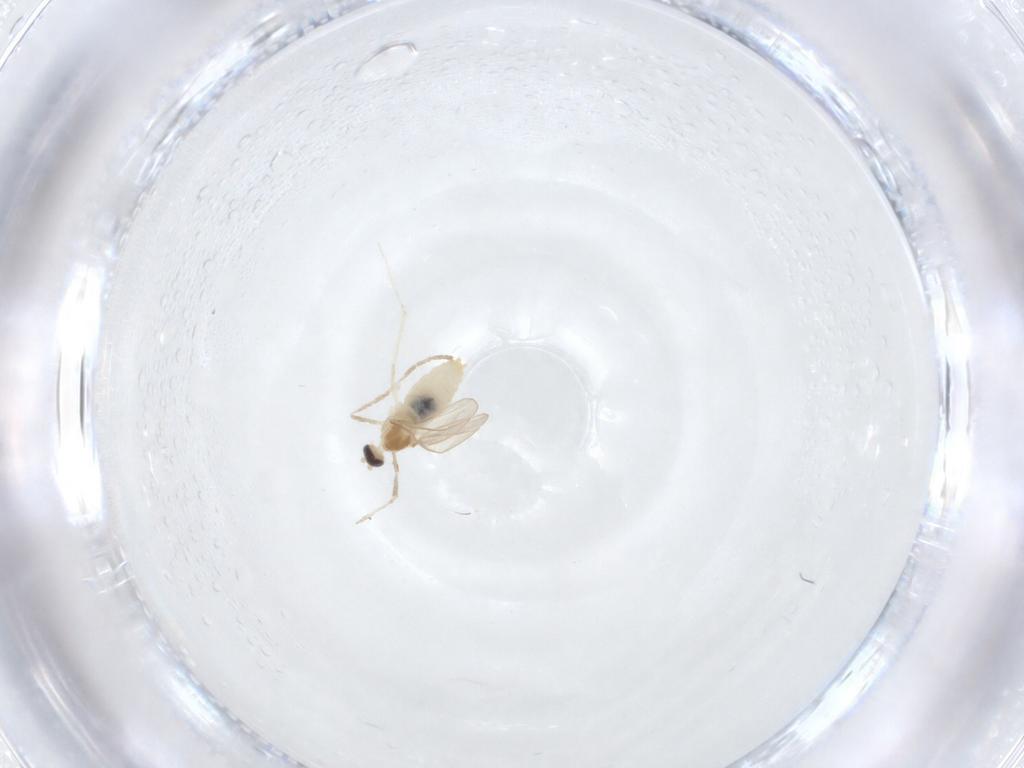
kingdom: Animalia
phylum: Arthropoda
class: Insecta
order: Diptera
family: Cecidomyiidae
